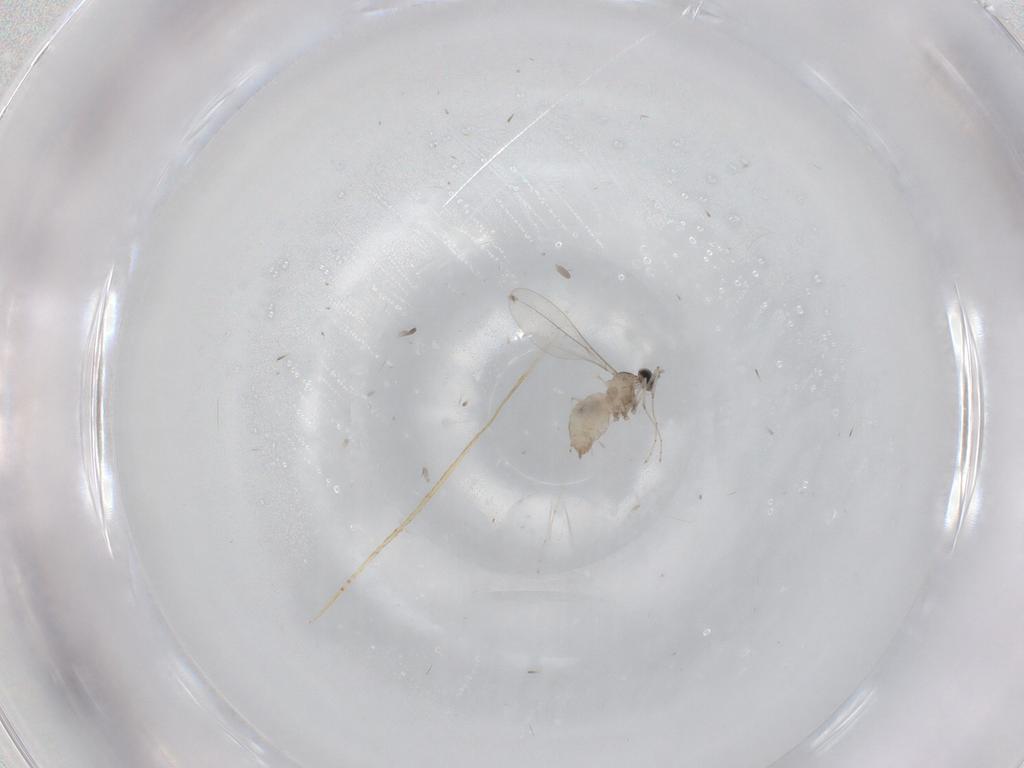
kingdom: Animalia
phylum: Arthropoda
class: Insecta
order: Diptera
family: Cecidomyiidae
